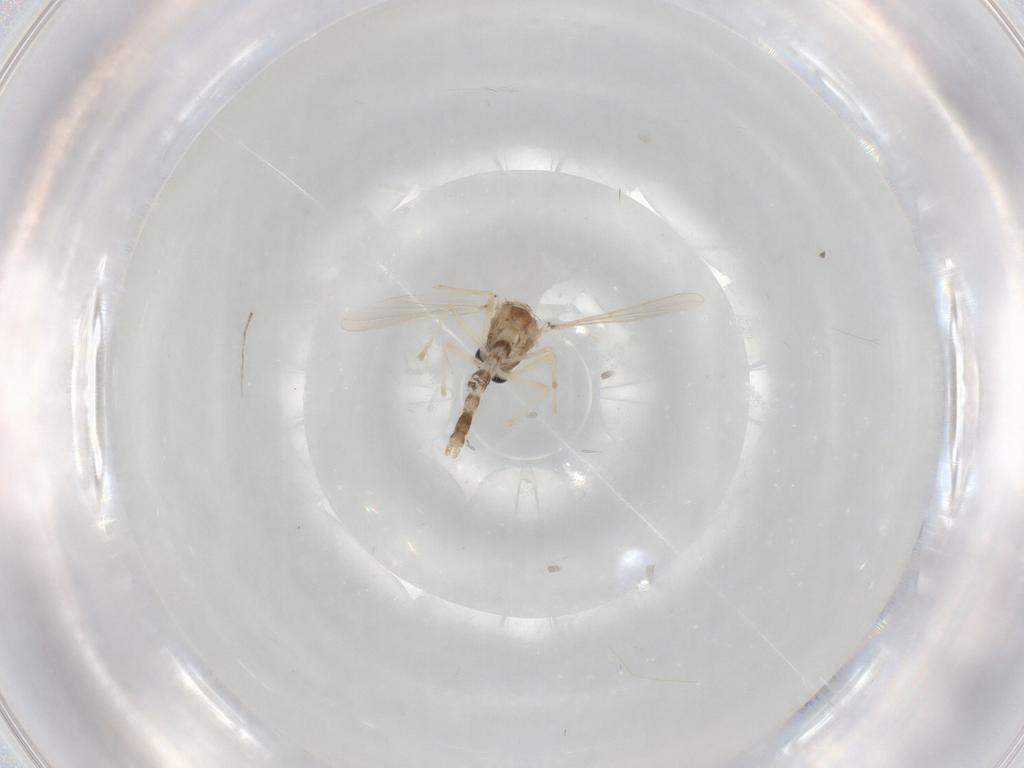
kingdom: Animalia
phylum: Arthropoda
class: Insecta
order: Diptera
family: Chironomidae
